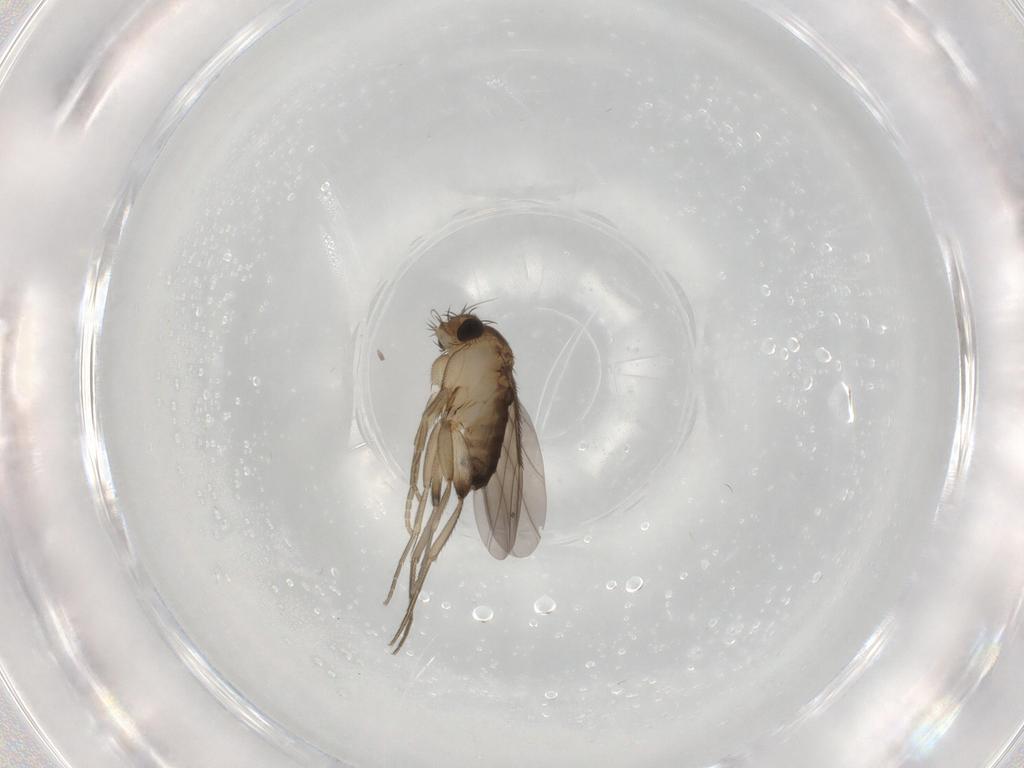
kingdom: Animalia
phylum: Arthropoda
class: Insecta
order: Diptera
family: Phoridae
